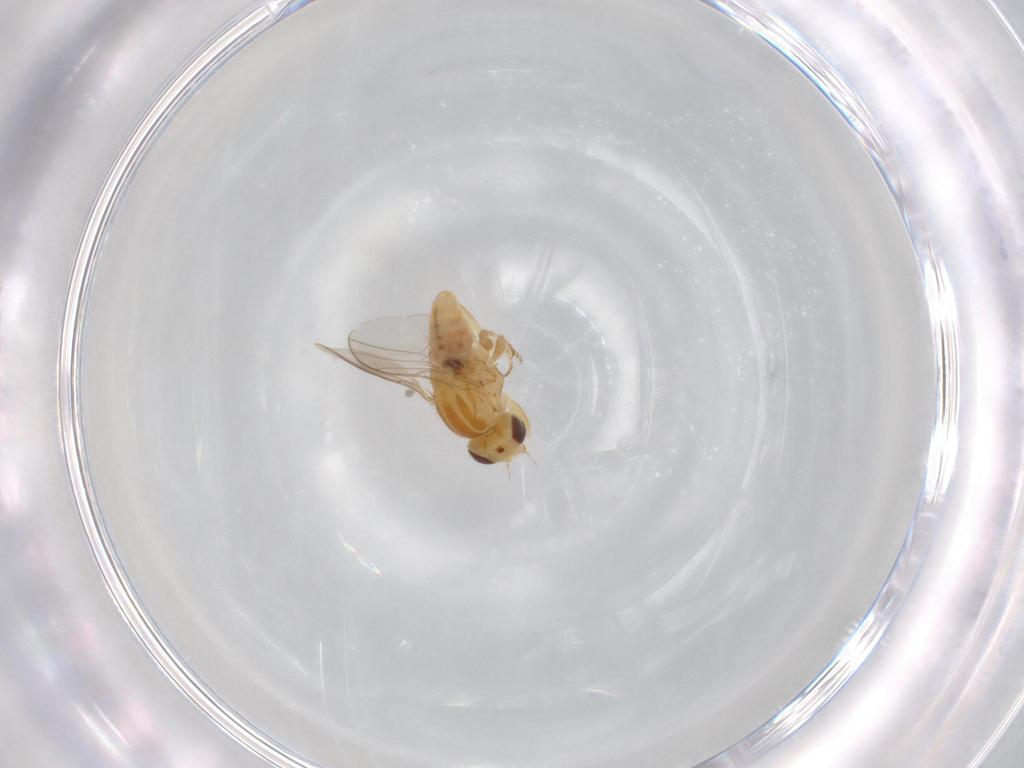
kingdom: Animalia
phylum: Arthropoda
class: Insecta
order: Diptera
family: Chloropidae
